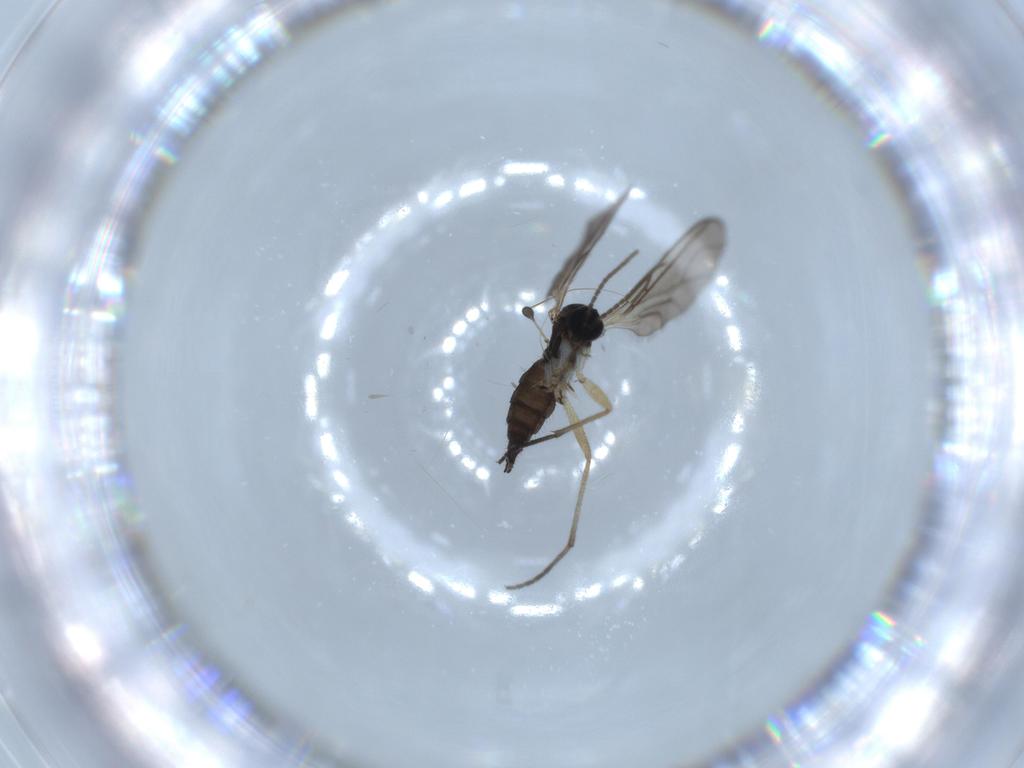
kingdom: Animalia
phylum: Arthropoda
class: Insecta
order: Diptera
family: Sciaridae
